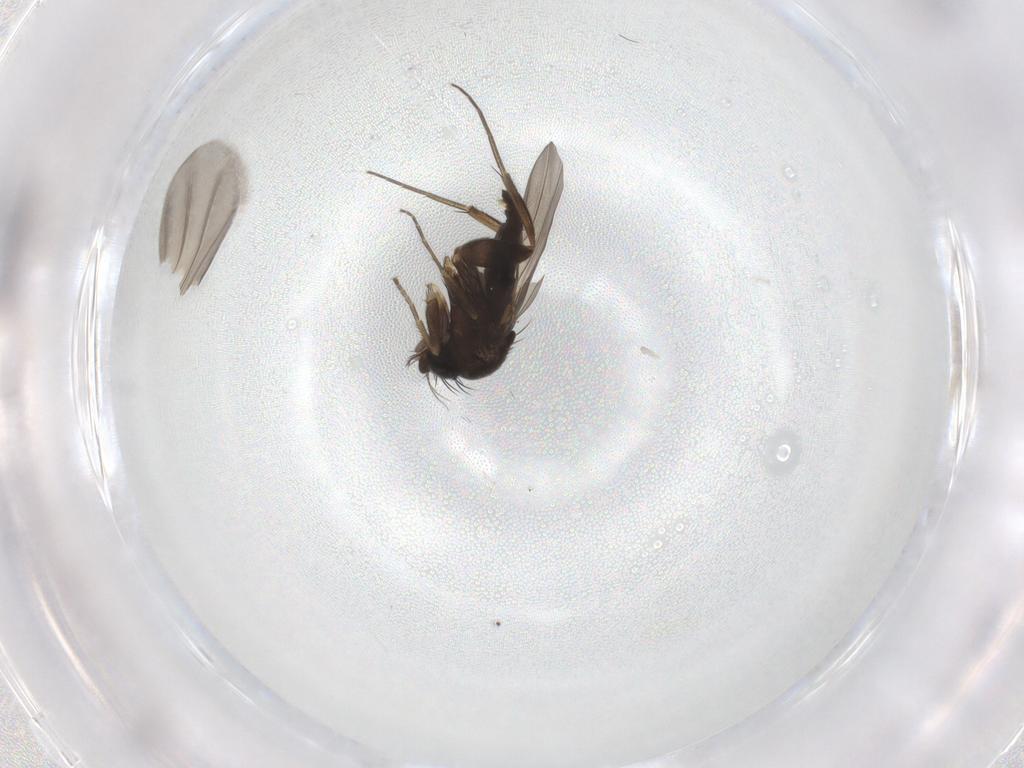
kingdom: Animalia
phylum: Arthropoda
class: Insecta
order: Diptera
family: Phoridae
